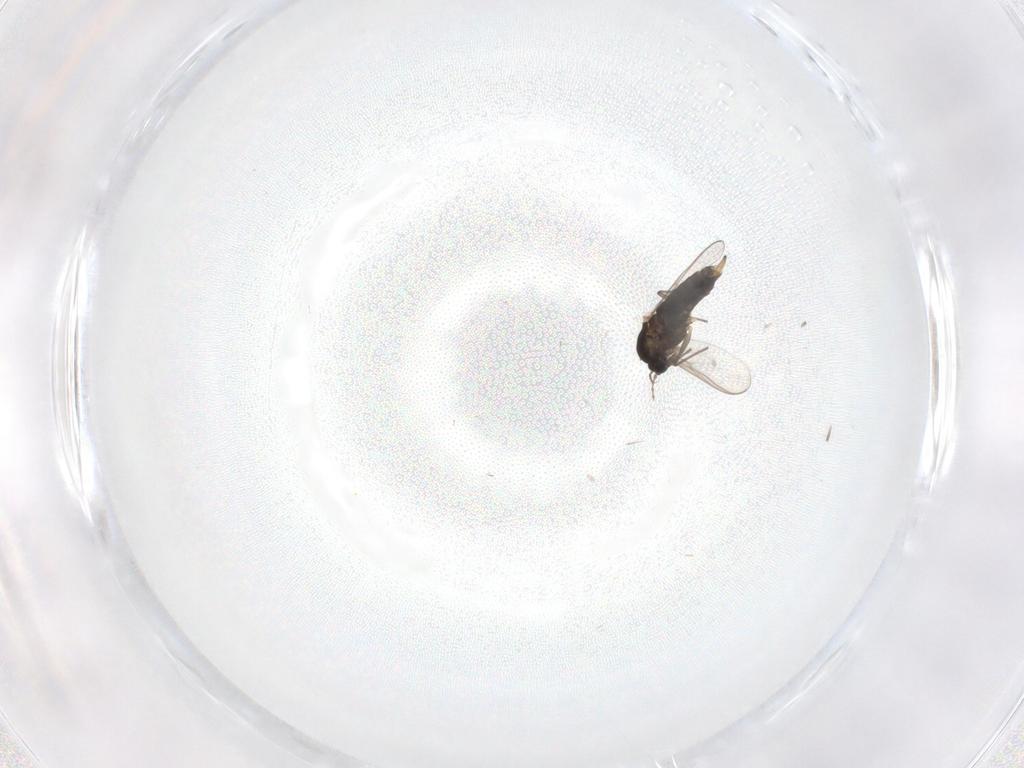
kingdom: Animalia
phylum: Arthropoda
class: Insecta
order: Diptera
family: Chironomidae
